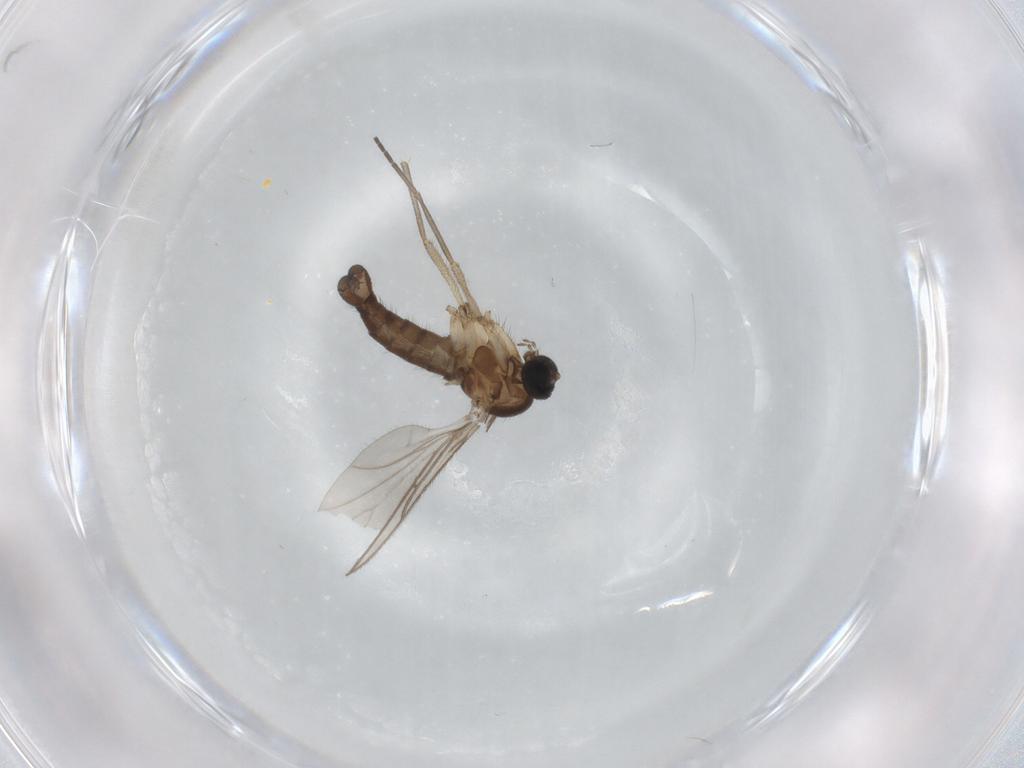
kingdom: Animalia
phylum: Arthropoda
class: Insecta
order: Diptera
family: Sciaridae
